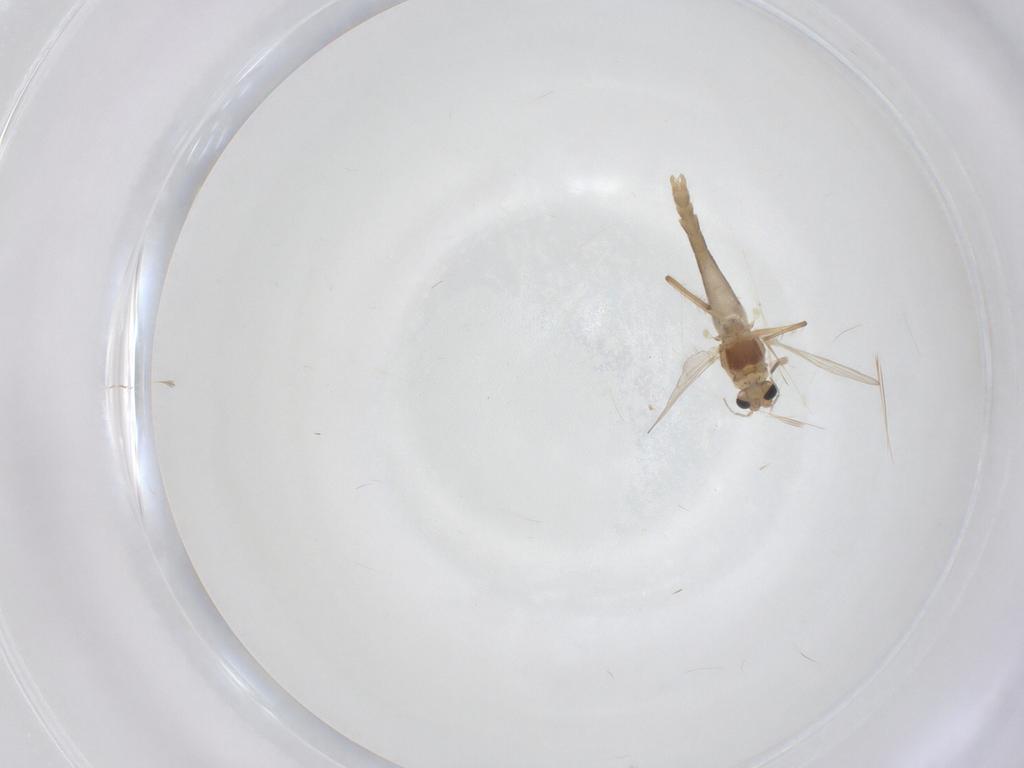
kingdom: Animalia
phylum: Arthropoda
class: Insecta
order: Diptera
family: Chironomidae
